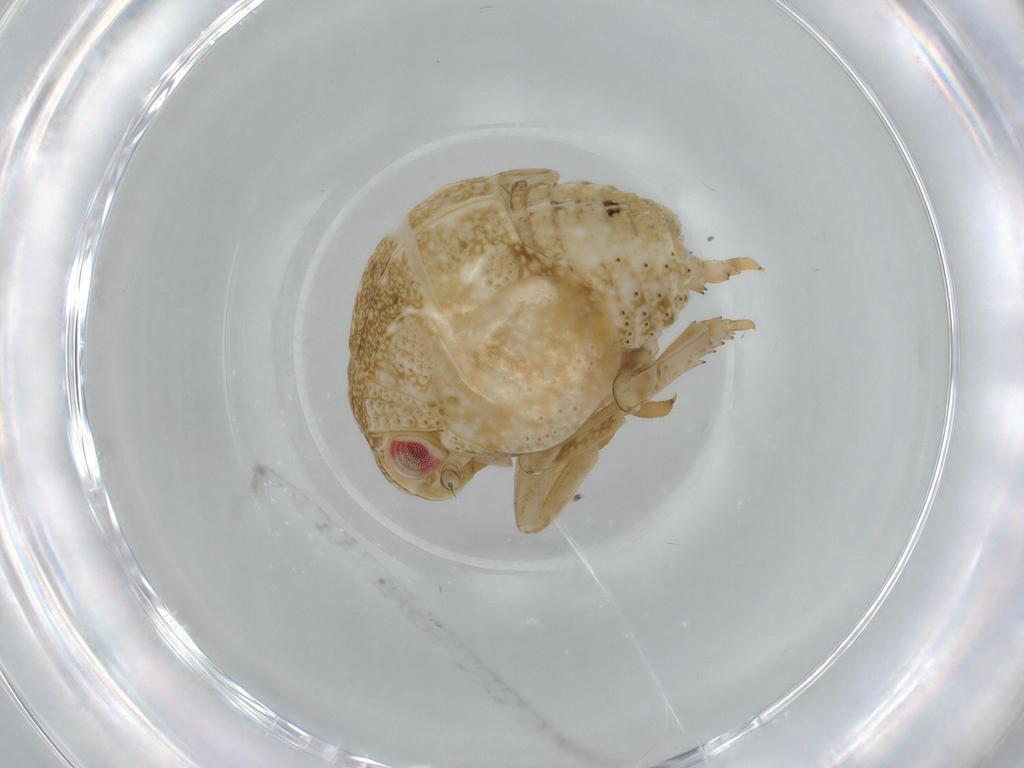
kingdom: Animalia
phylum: Arthropoda
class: Insecta
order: Hemiptera
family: Acanaloniidae
